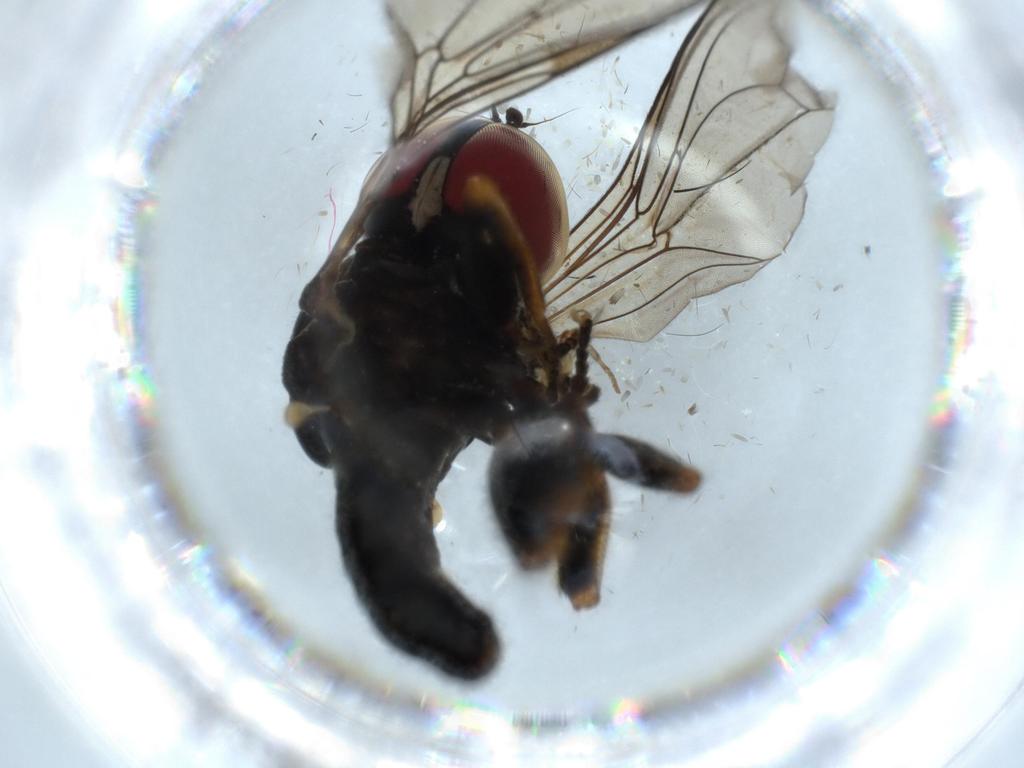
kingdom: Animalia
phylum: Arthropoda
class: Insecta
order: Diptera
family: Pipunculidae
